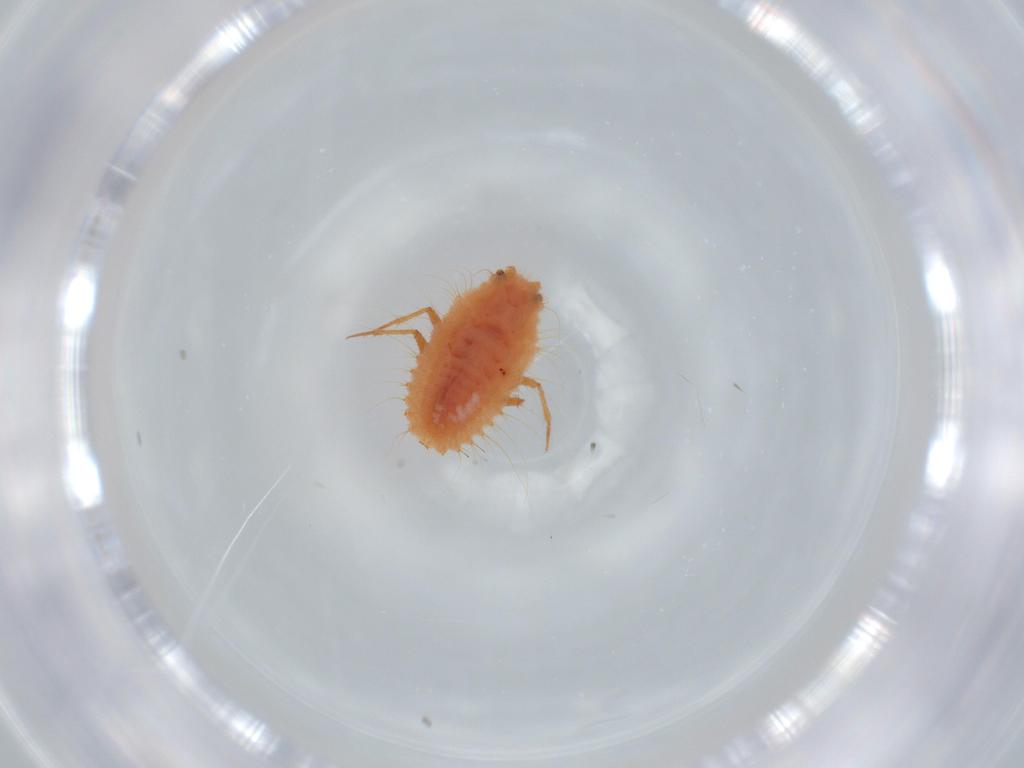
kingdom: Animalia
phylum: Arthropoda
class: Insecta
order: Hemiptera
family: Coccoidea_incertae_sedis
